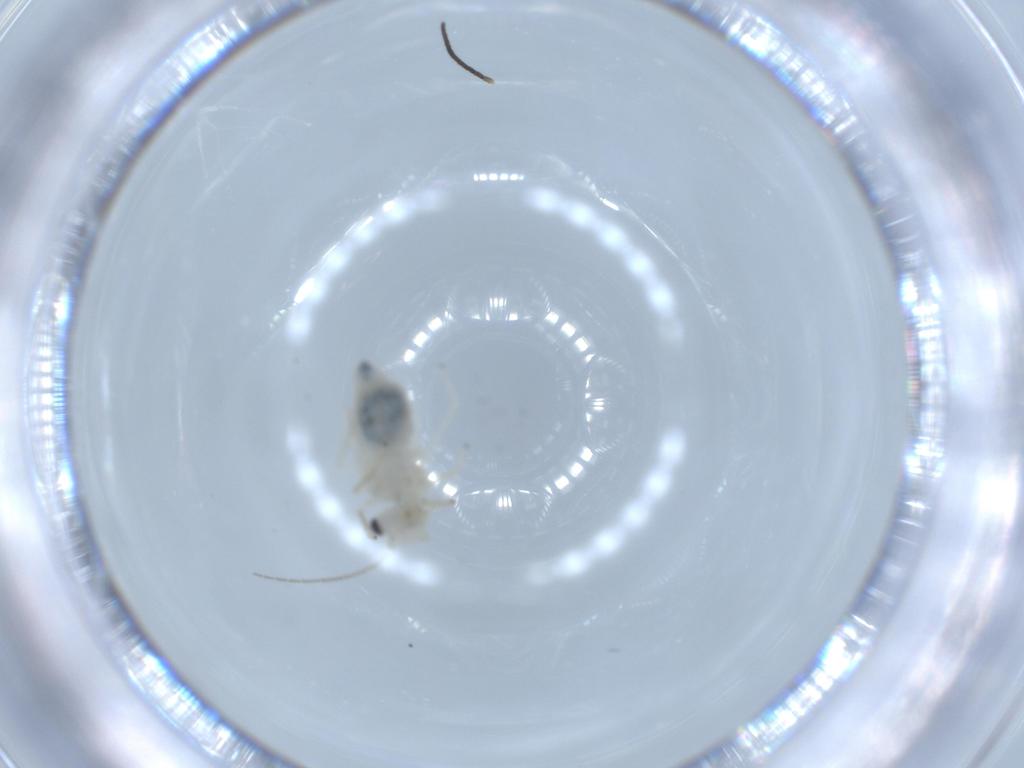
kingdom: Animalia
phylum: Arthropoda
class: Insecta
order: Psocodea
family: Caeciliusidae
